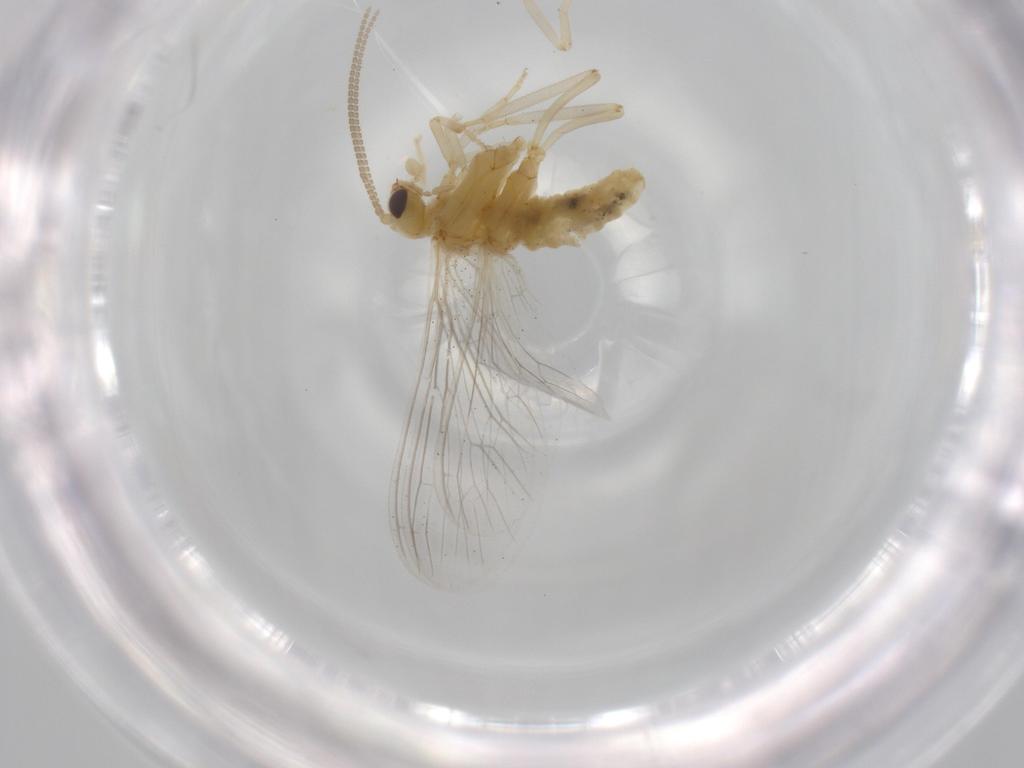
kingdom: Animalia
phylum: Arthropoda
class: Insecta
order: Neuroptera
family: Coniopterygidae
